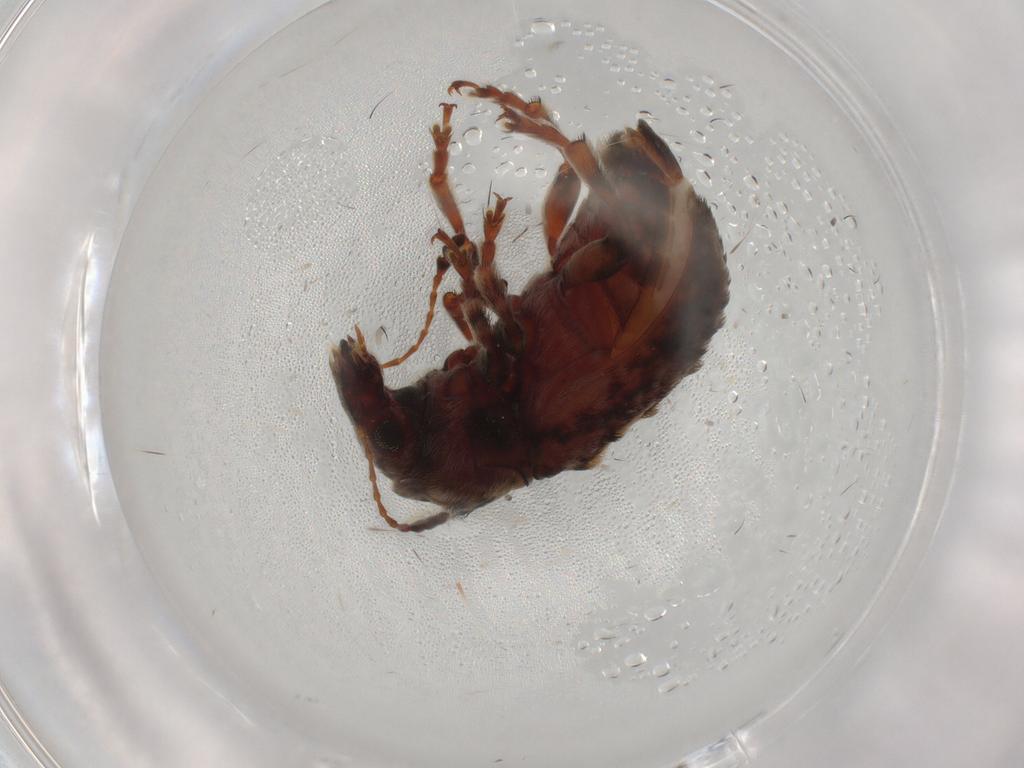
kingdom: Animalia
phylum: Arthropoda
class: Insecta
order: Coleoptera
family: Anthribidae
